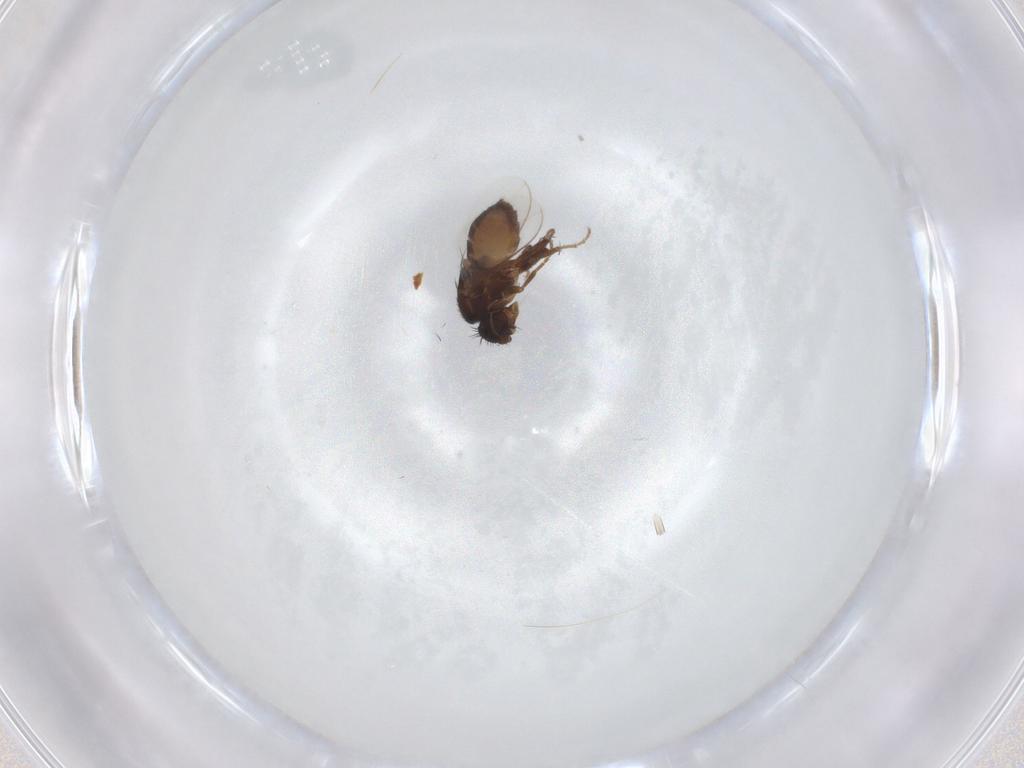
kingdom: Animalia
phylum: Arthropoda
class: Insecta
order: Diptera
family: Sphaeroceridae
